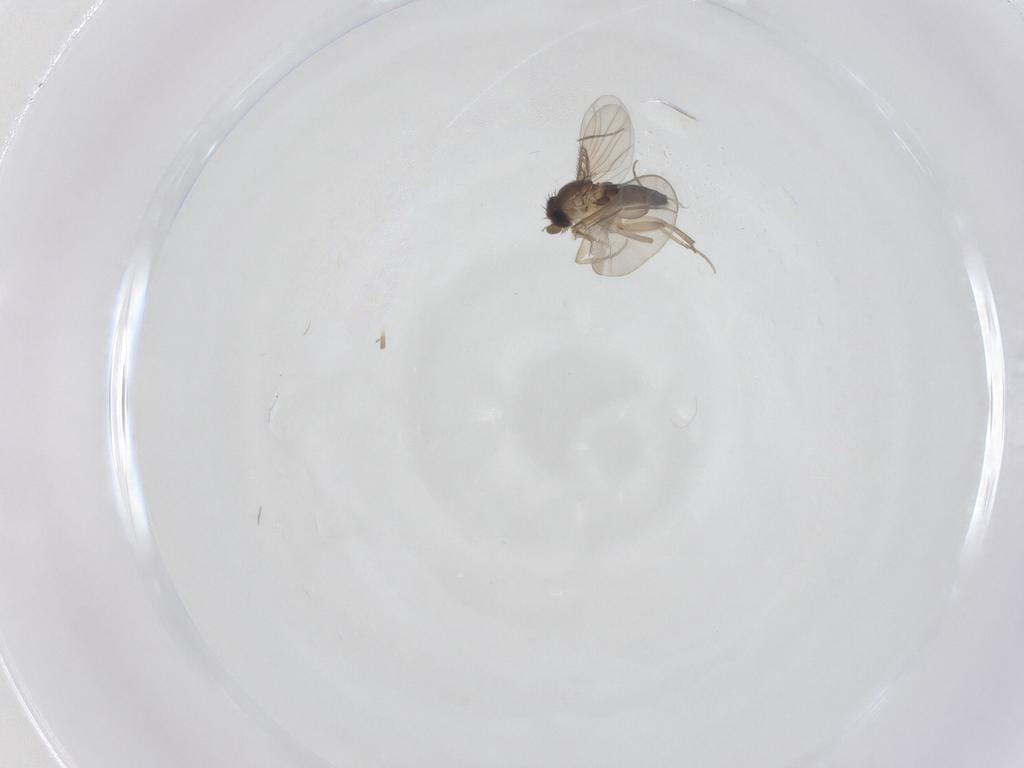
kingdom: Animalia
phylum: Arthropoda
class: Insecta
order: Diptera
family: Phoridae
